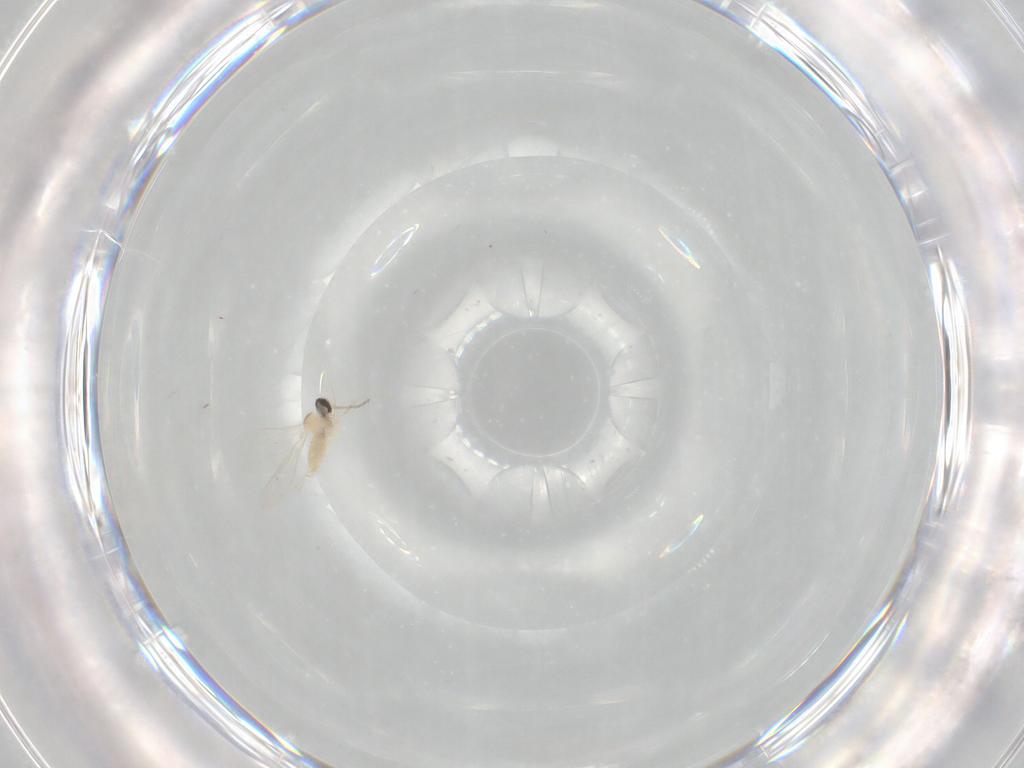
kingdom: Animalia
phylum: Arthropoda
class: Insecta
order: Diptera
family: Cecidomyiidae
